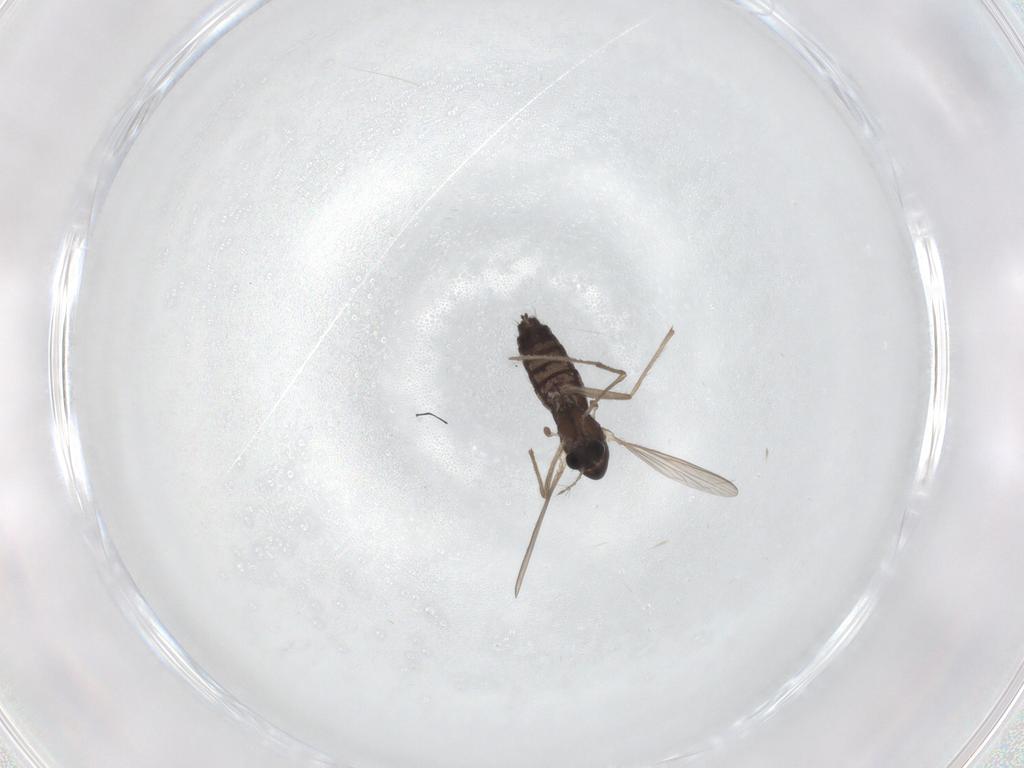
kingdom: Animalia
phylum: Arthropoda
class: Insecta
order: Diptera
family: Chironomidae
